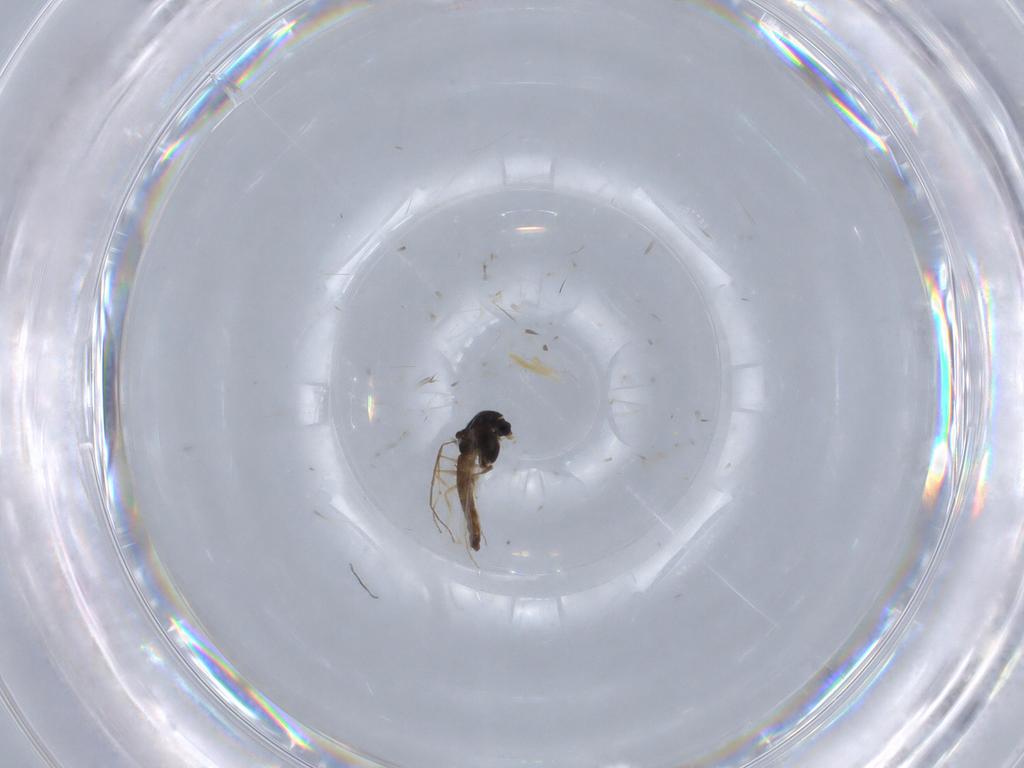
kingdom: Animalia
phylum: Arthropoda
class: Insecta
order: Diptera
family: Chironomidae
